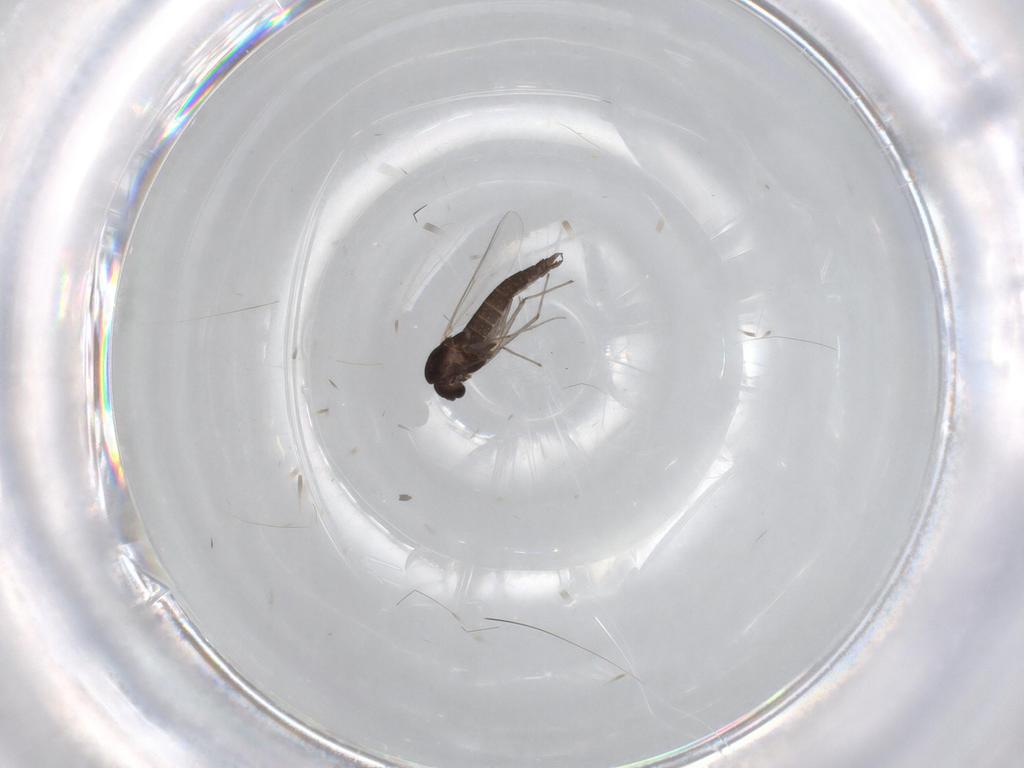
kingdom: Animalia
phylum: Arthropoda
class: Insecta
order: Diptera
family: Chironomidae
